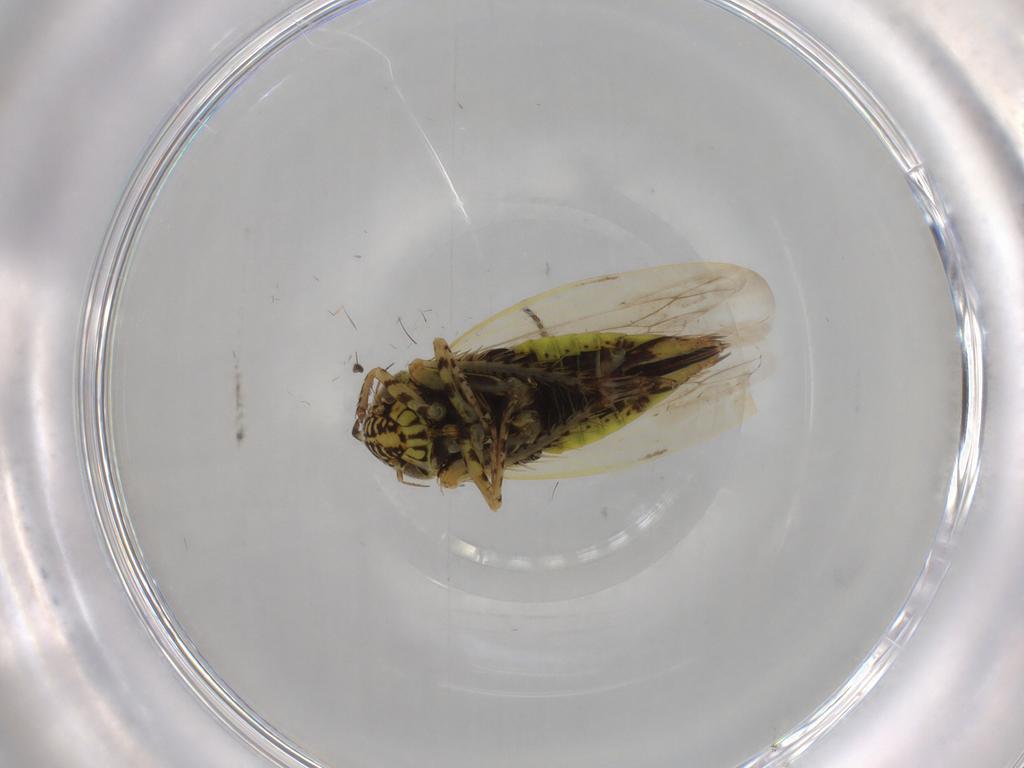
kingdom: Animalia
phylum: Arthropoda
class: Insecta
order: Hemiptera
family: Cicadellidae
